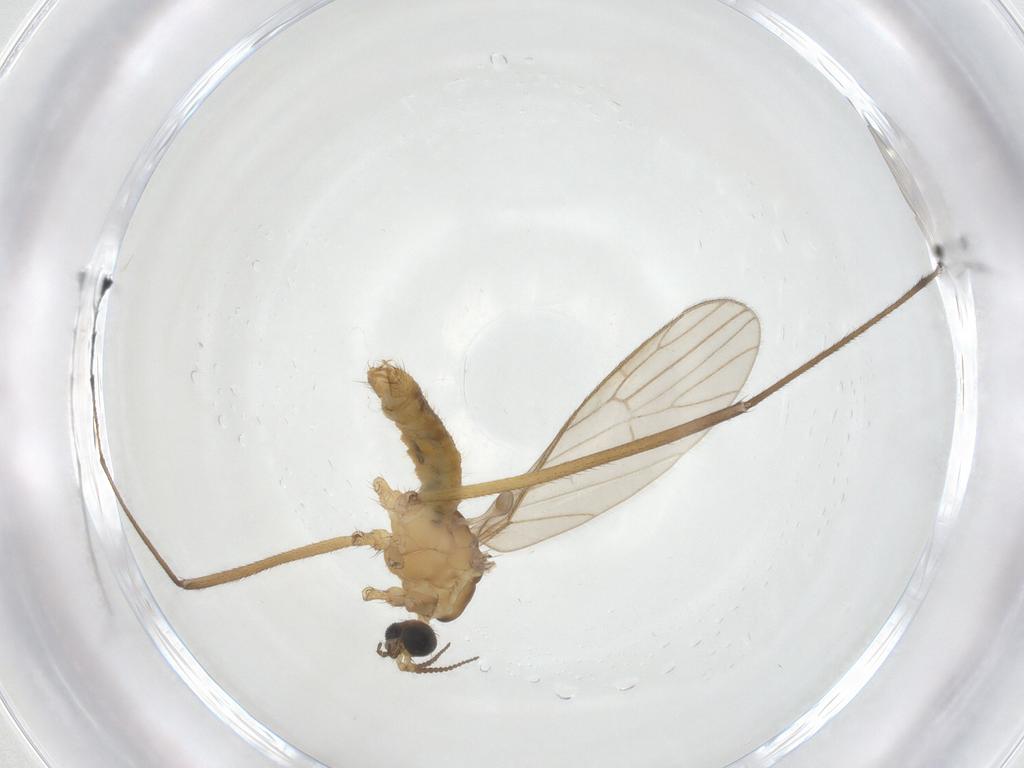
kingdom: Animalia
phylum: Arthropoda
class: Insecta
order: Diptera
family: Limoniidae
